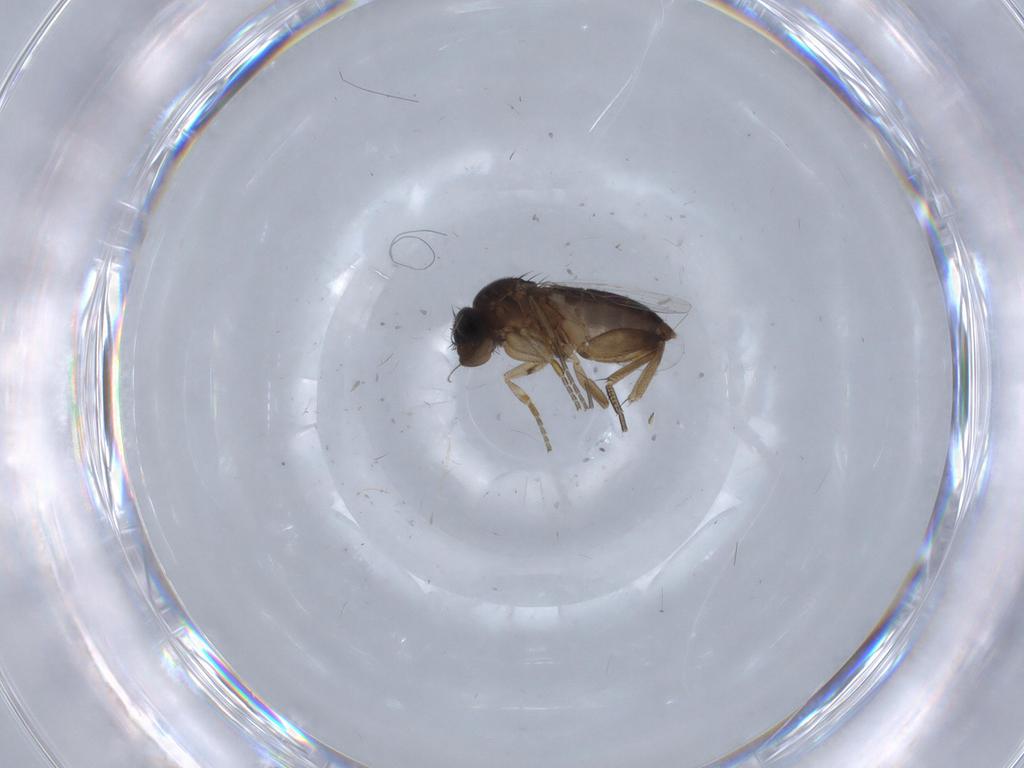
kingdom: Animalia
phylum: Arthropoda
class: Insecta
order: Diptera
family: Phoridae
